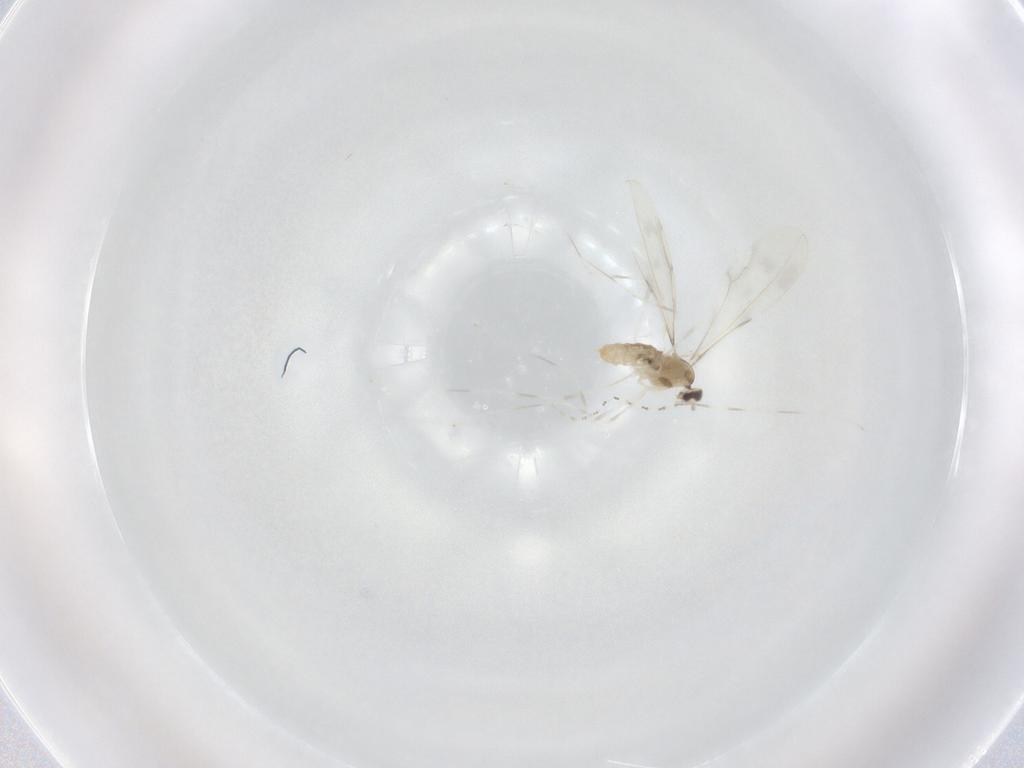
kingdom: Animalia
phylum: Arthropoda
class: Insecta
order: Diptera
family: Cecidomyiidae
